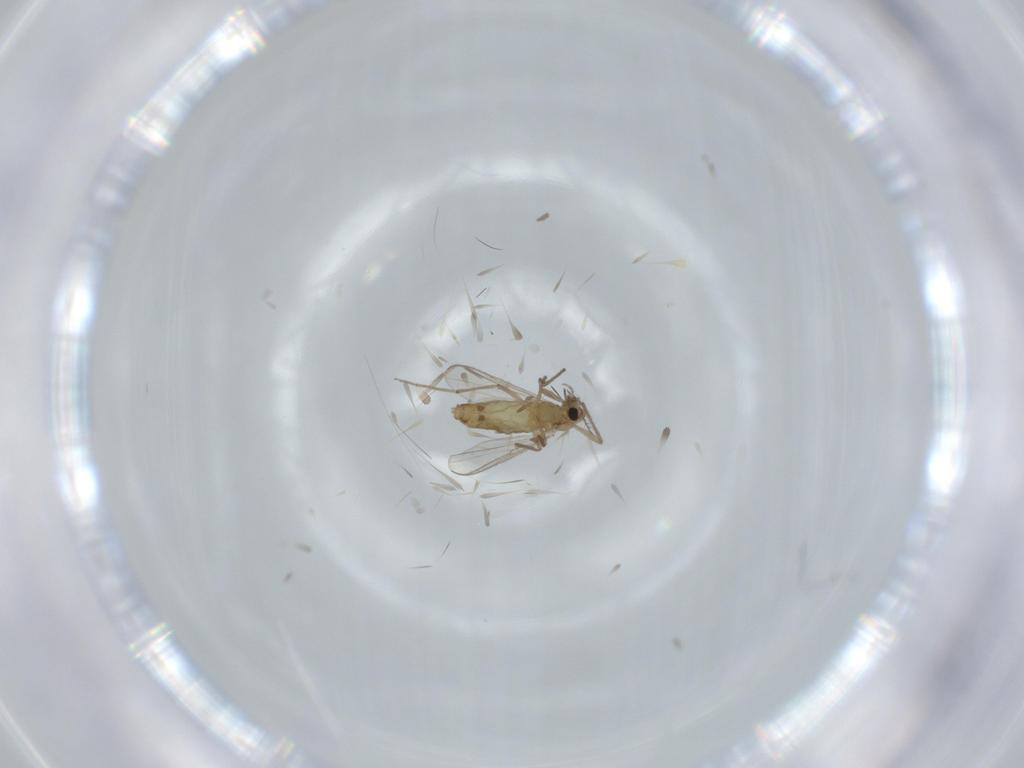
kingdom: Animalia
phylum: Arthropoda
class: Insecta
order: Diptera
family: Chironomidae
